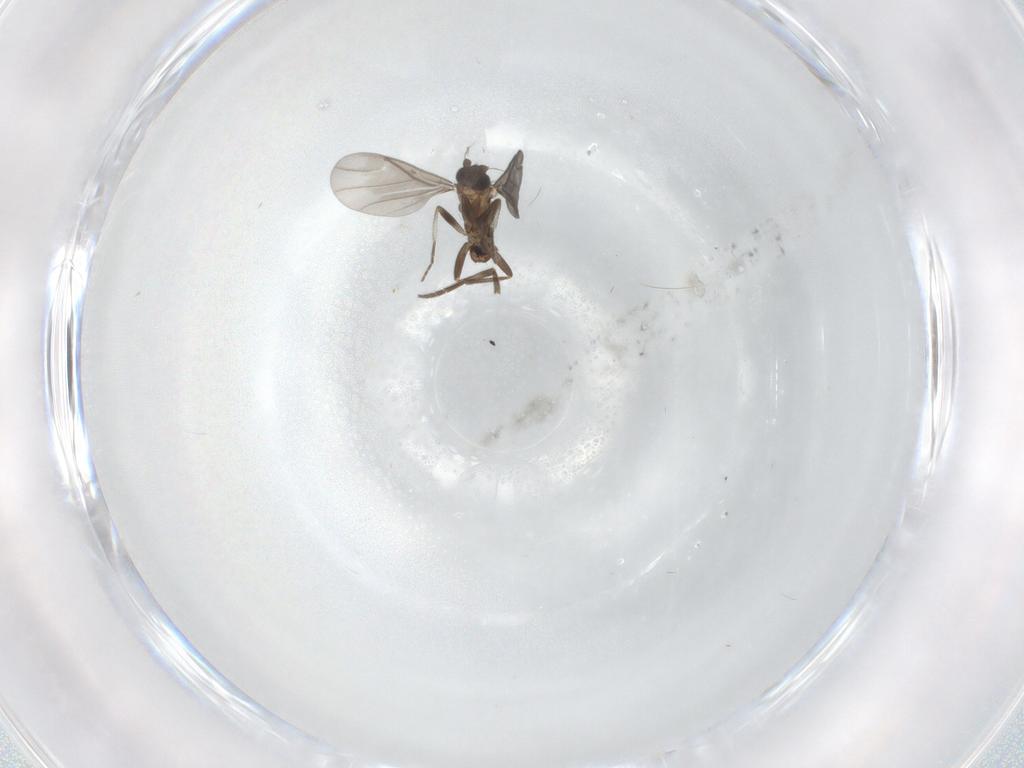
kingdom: Animalia
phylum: Arthropoda
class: Insecta
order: Diptera
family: Phoridae
